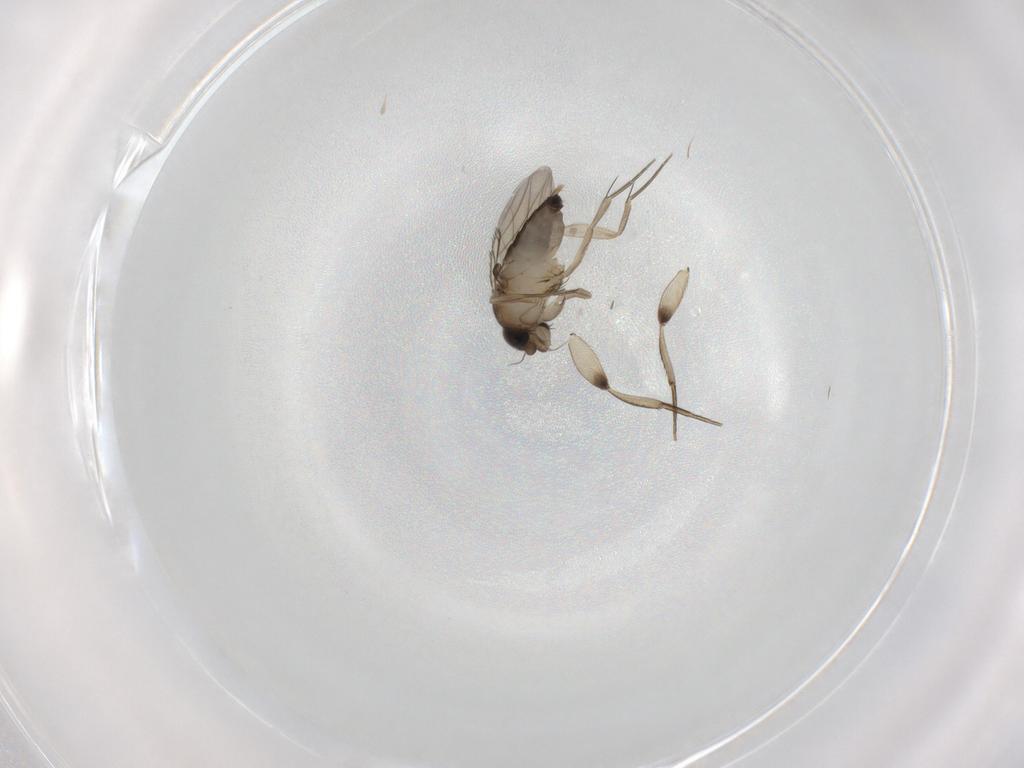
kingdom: Animalia
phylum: Arthropoda
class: Insecta
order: Diptera
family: Phoridae
